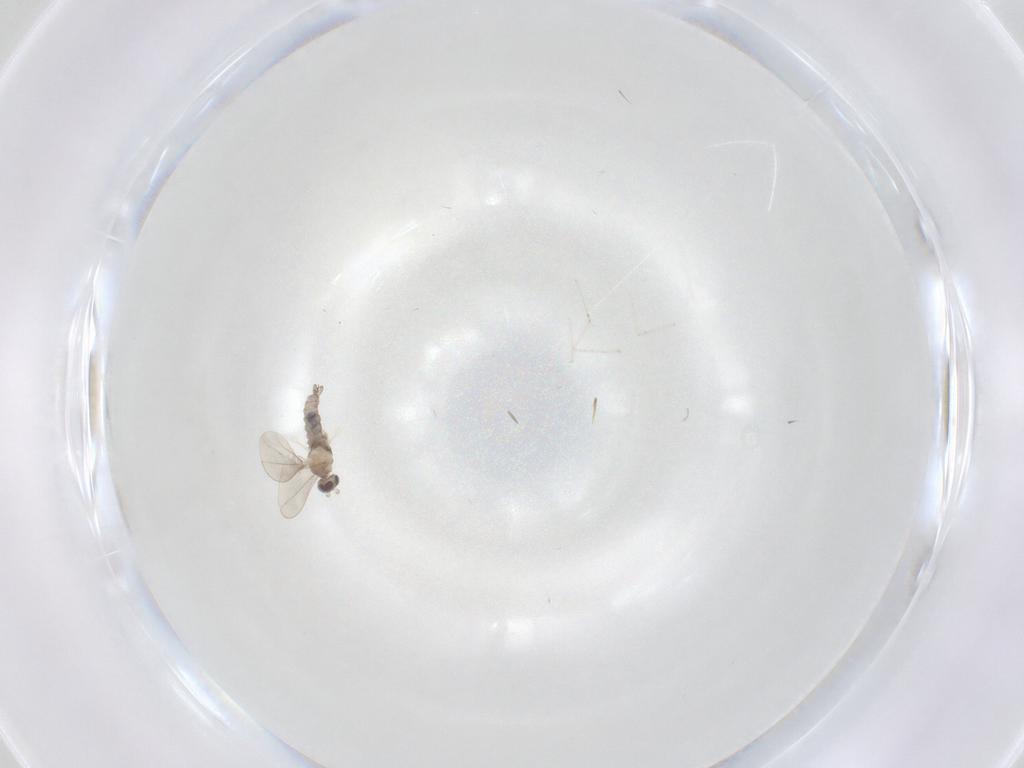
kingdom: Animalia
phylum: Arthropoda
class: Insecta
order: Diptera
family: Cecidomyiidae
